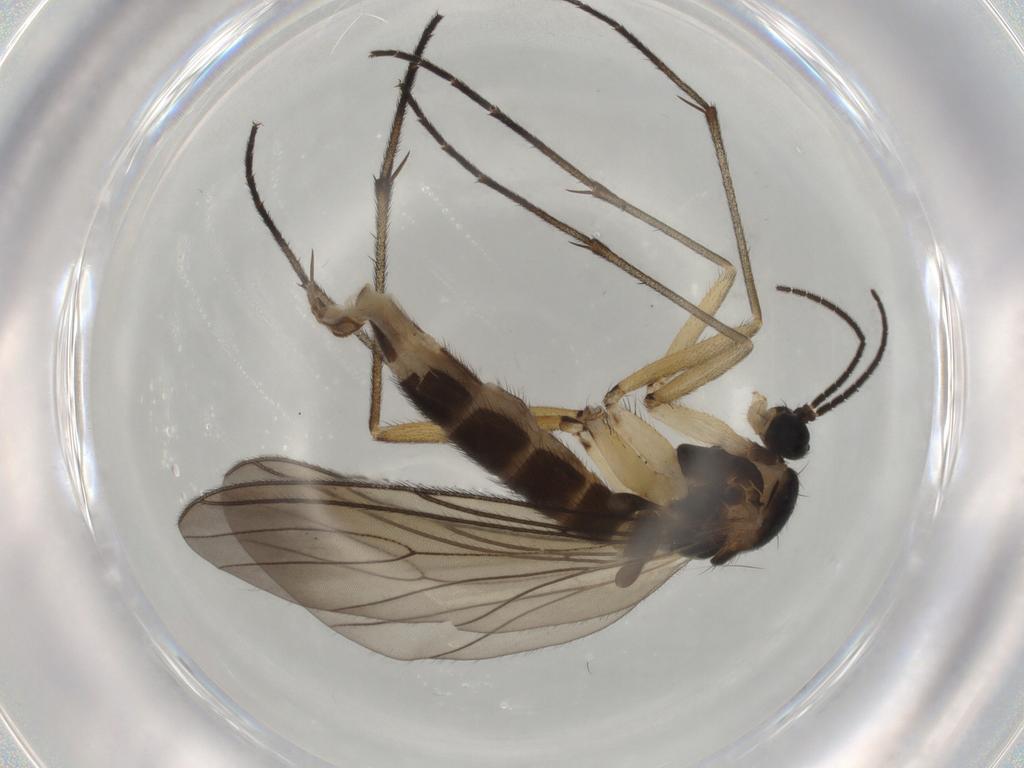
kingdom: Animalia
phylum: Arthropoda
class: Insecta
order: Diptera
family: Sciaridae
